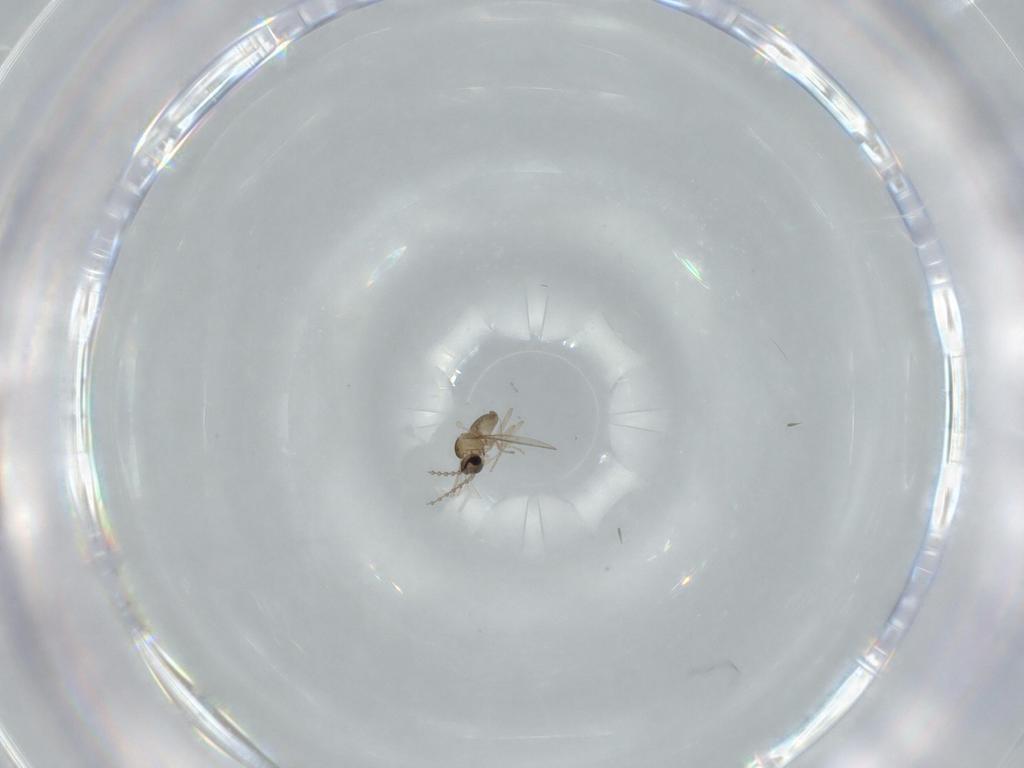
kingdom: Animalia
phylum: Arthropoda
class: Insecta
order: Diptera
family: Cecidomyiidae
